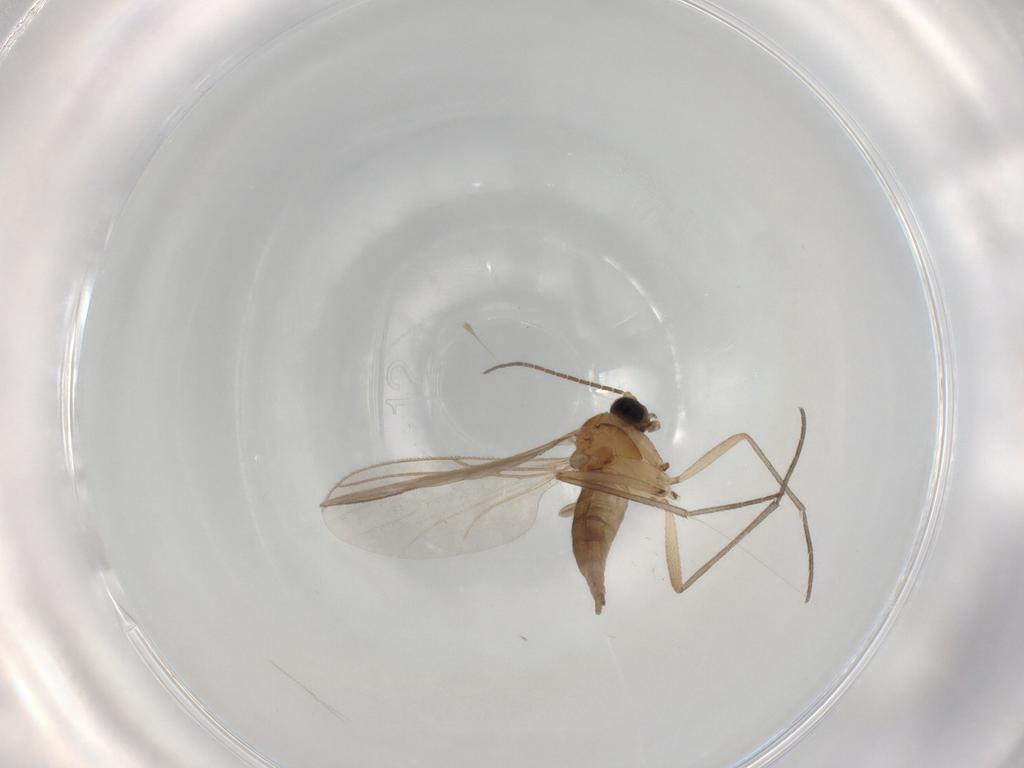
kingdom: Animalia
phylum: Arthropoda
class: Insecta
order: Diptera
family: Sciaridae
